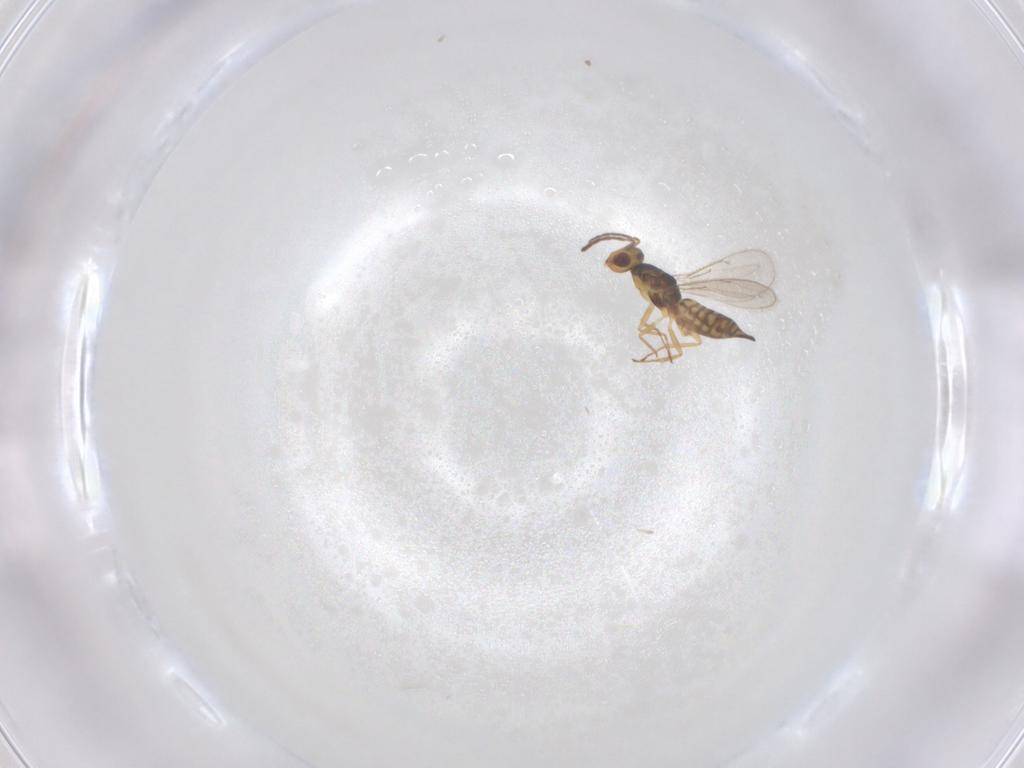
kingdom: Animalia
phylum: Arthropoda
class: Insecta
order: Hymenoptera
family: Eulophidae
